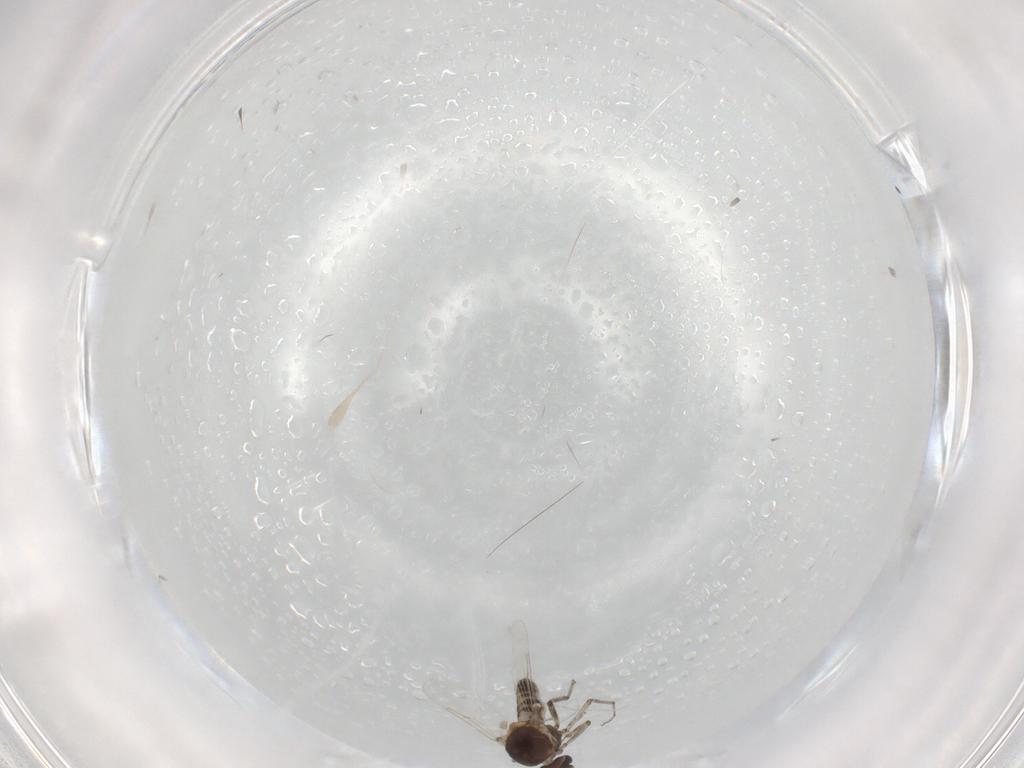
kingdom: Animalia
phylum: Arthropoda
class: Insecta
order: Diptera
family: Ceratopogonidae
